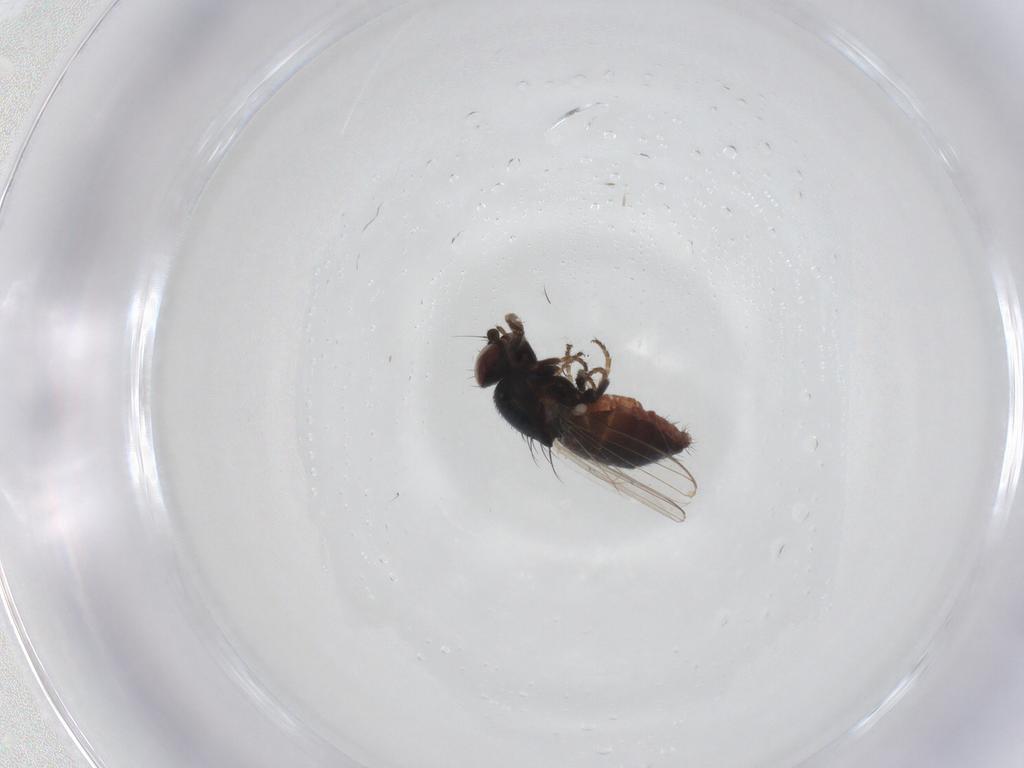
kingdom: Animalia
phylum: Arthropoda
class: Insecta
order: Diptera
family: Milichiidae
